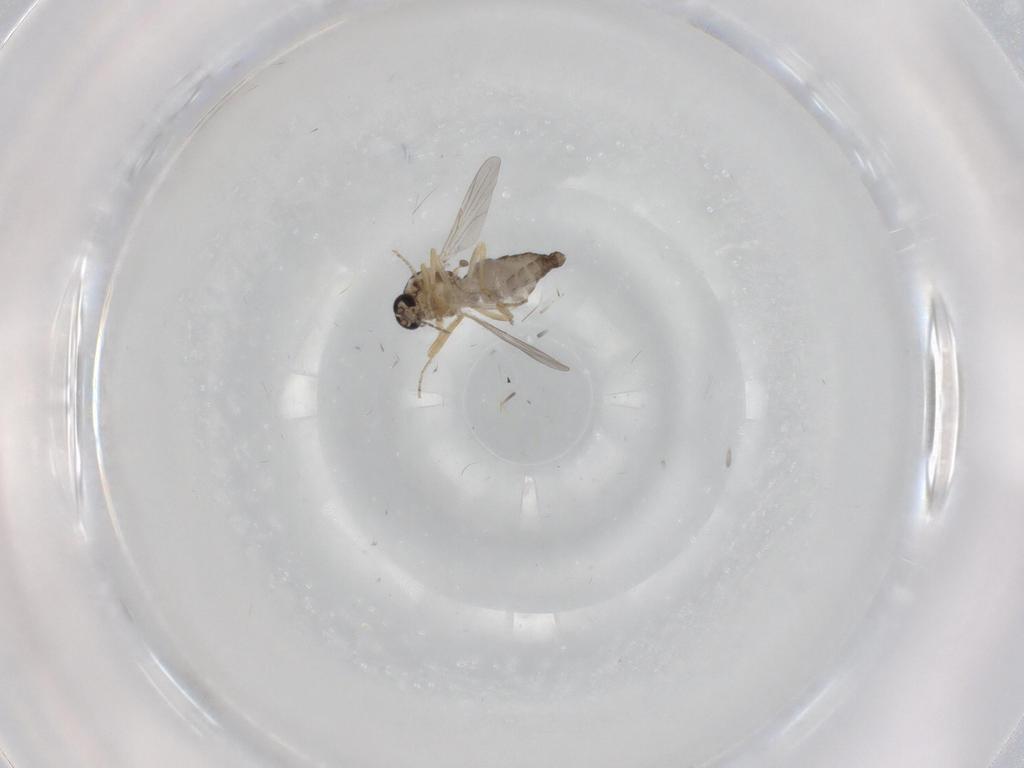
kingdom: Animalia
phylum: Arthropoda
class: Insecta
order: Diptera
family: Ceratopogonidae
